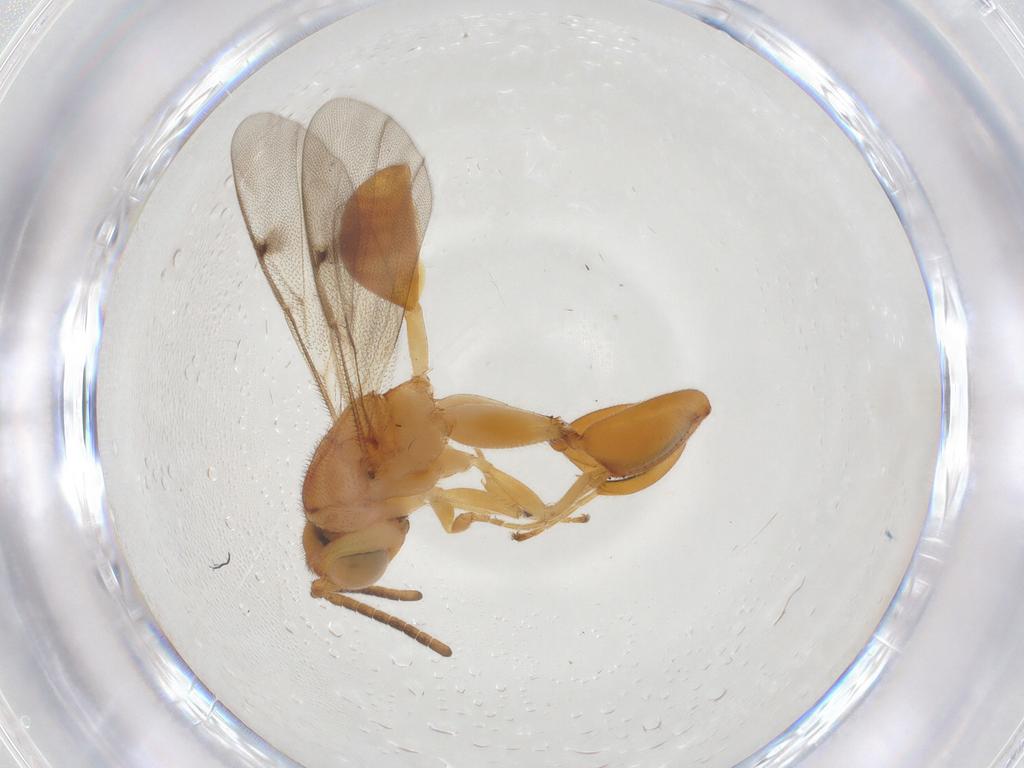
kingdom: Animalia
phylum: Arthropoda
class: Insecta
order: Hymenoptera
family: Chalcididae
